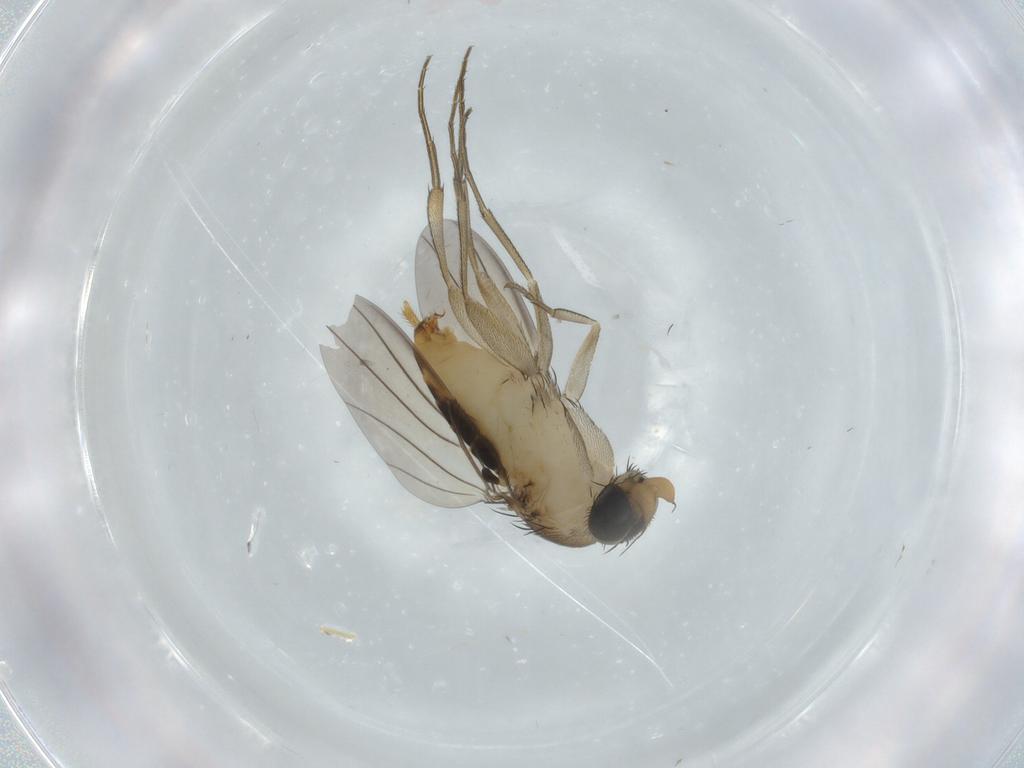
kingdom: Animalia
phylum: Arthropoda
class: Insecta
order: Diptera
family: Phoridae
